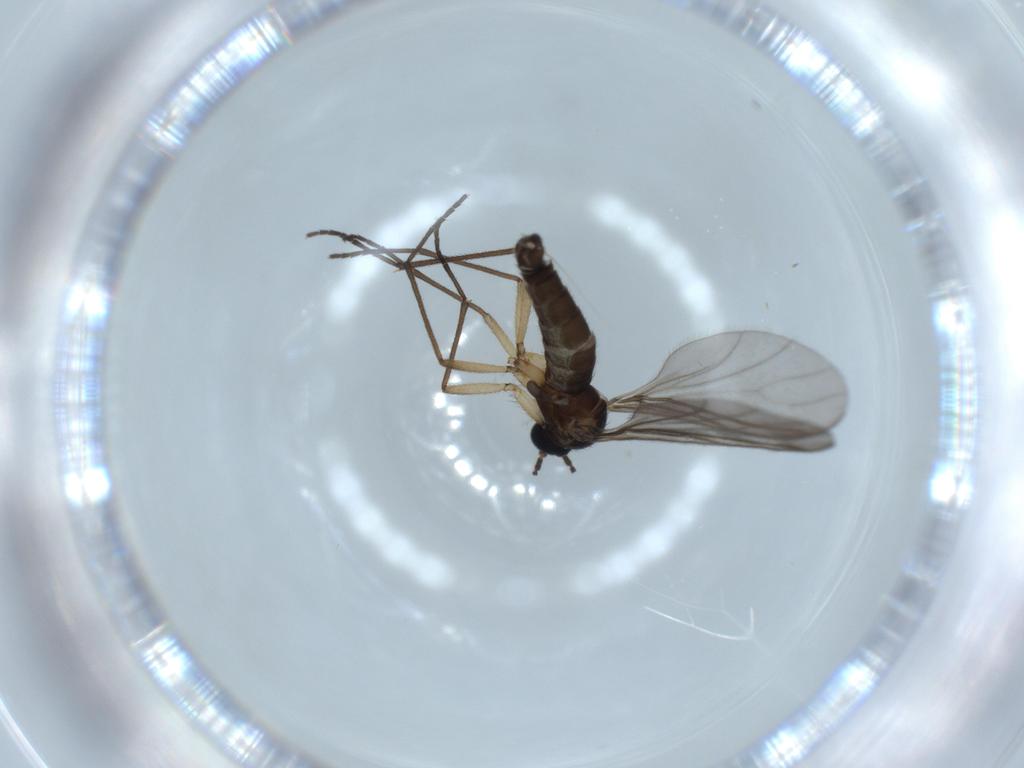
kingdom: Animalia
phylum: Arthropoda
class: Insecta
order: Diptera
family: Sciaridae
